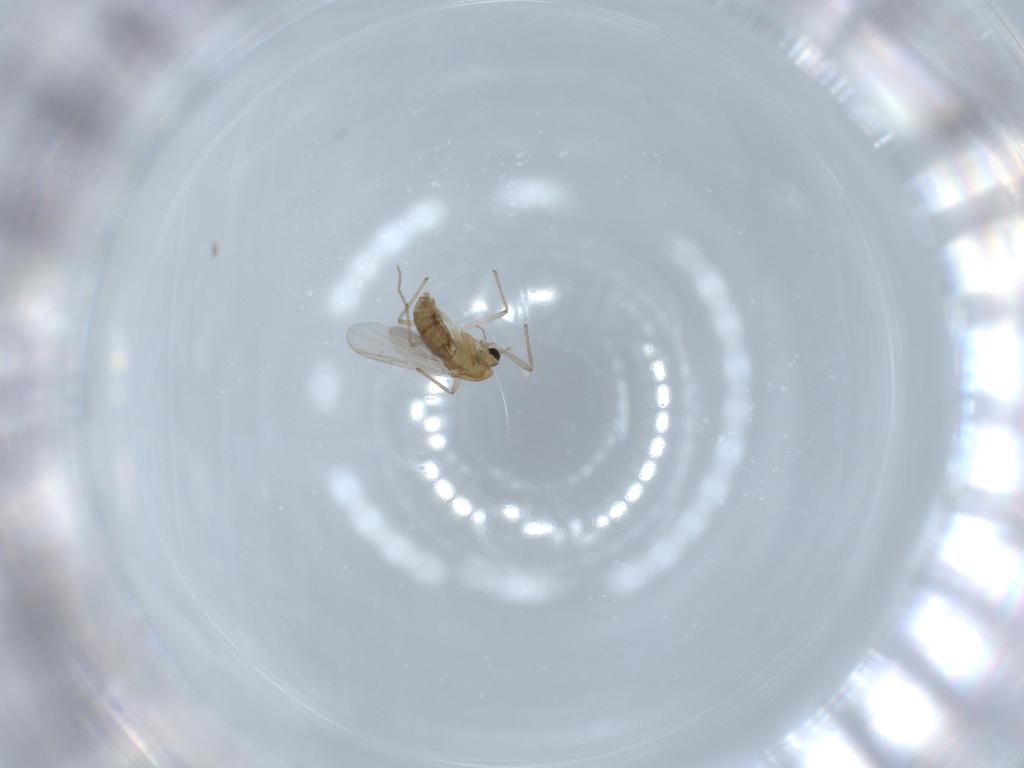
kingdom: Animalia
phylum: Arthropoda
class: Insecta
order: Diptera
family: Chironomidae
